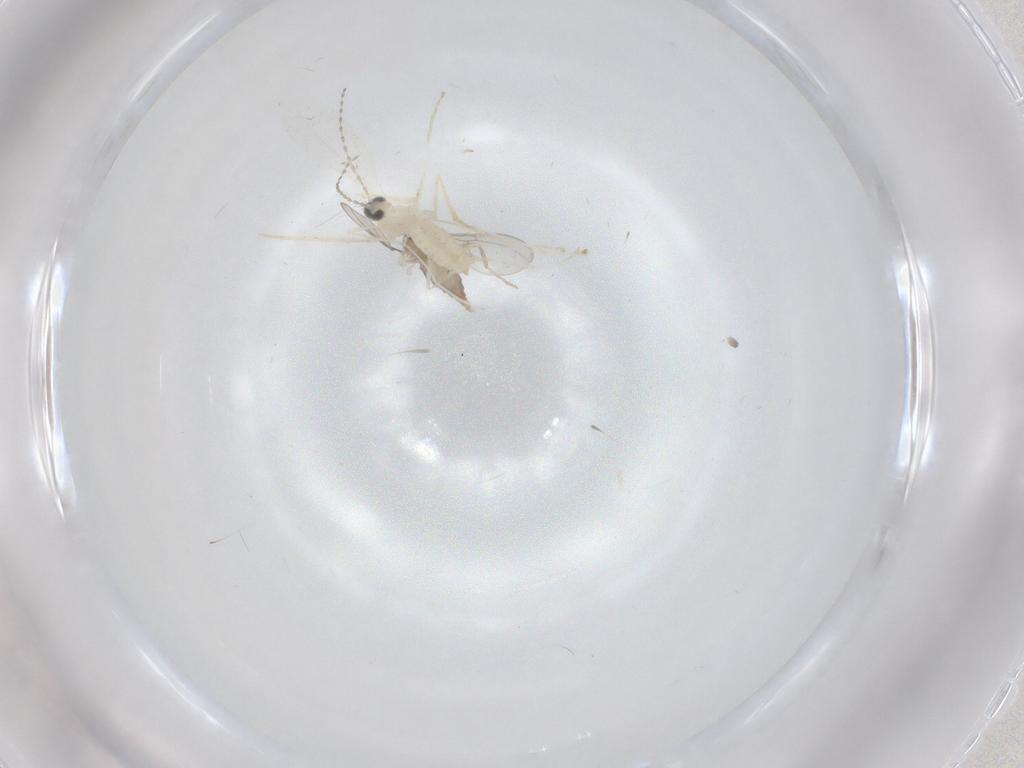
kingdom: Animalia
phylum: Arthropoda
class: Insecta
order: Diptera
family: Cecidomyiidae
